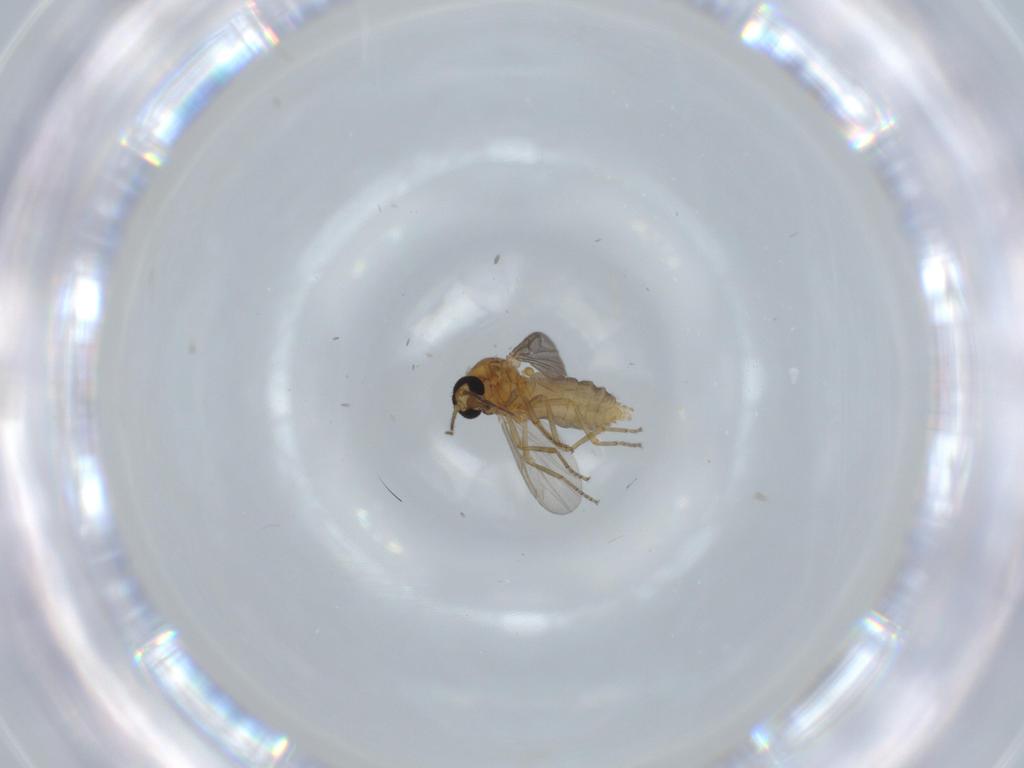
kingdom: Animalia
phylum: Arthropoda
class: Insecta
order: Diptera
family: Ceratopogonidae
